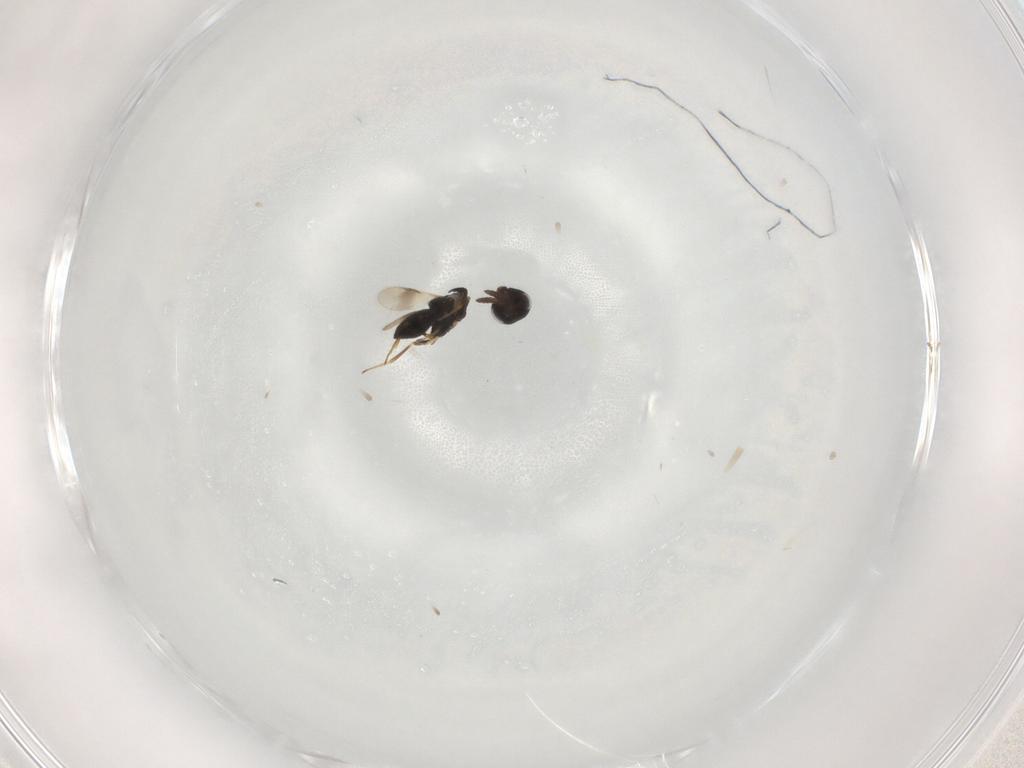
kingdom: Animalia
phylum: Arthropoda
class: Insecta
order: Hymenoptera
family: Scelionidae
